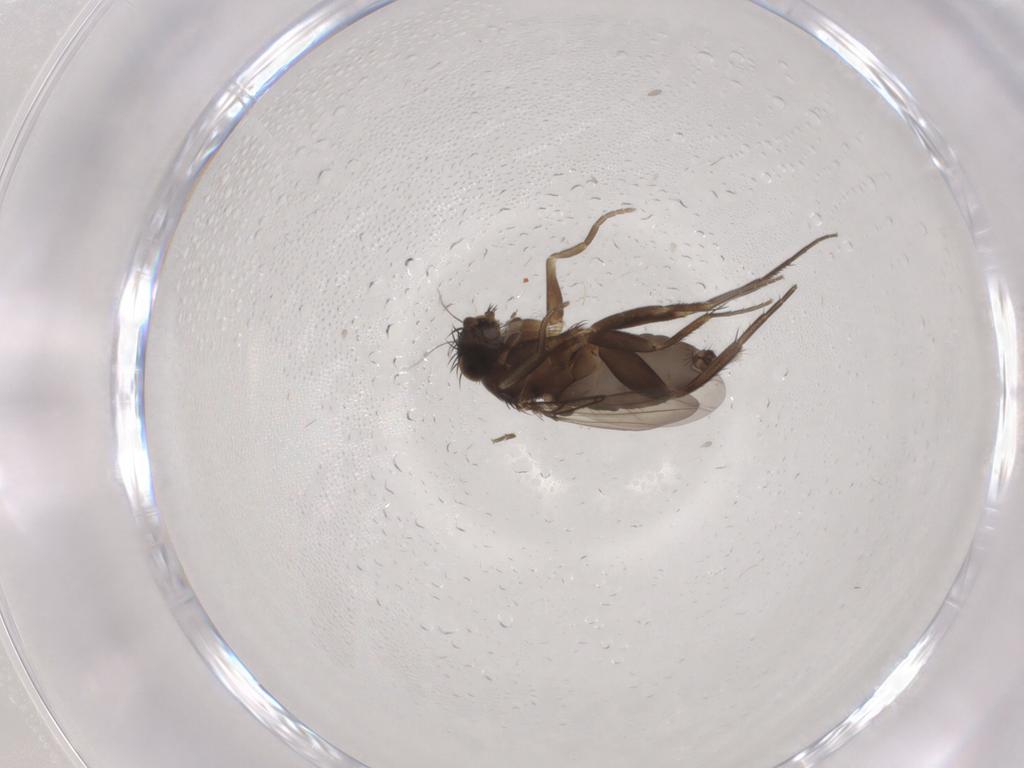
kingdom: Animalia
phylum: Arthropoda
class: Insecta
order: Diptera
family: Phoridae
